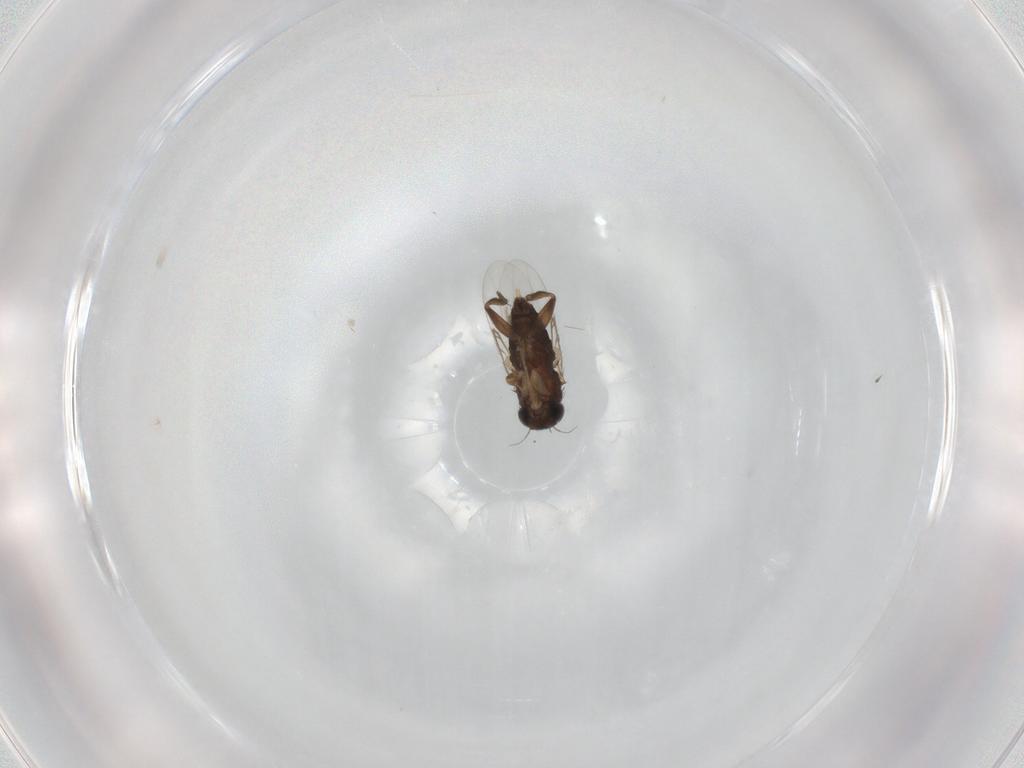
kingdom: Animalia
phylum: Arthropoda
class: Insecta
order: Diptera
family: Phoridae
